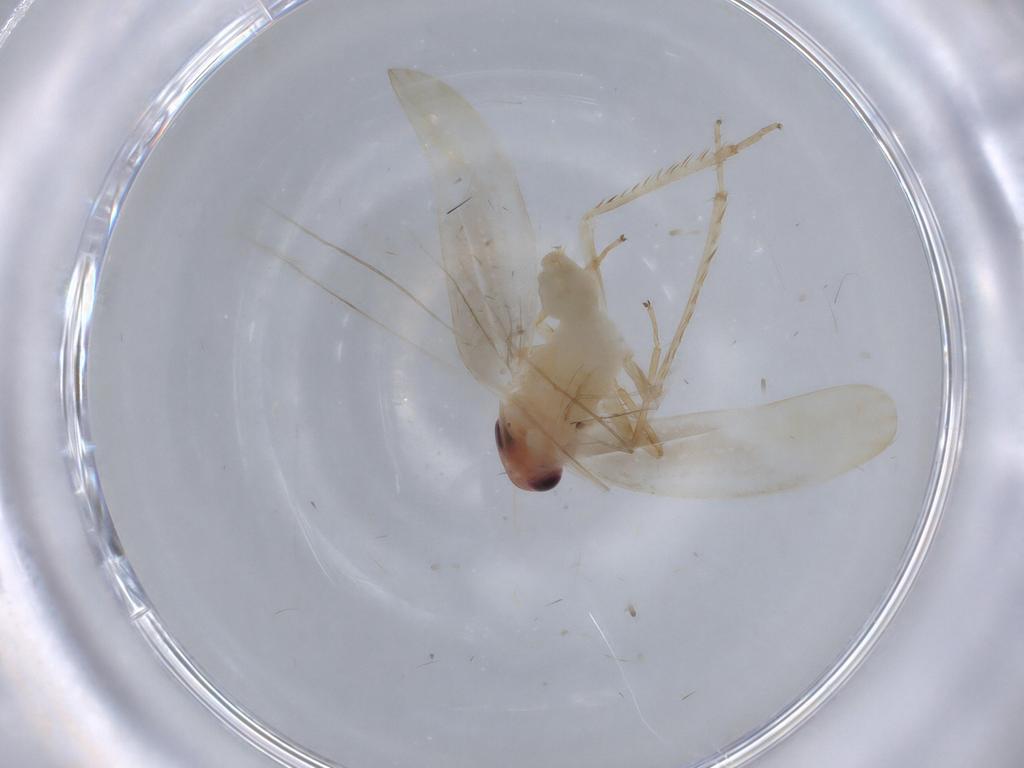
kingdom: Animalia
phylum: Arthropoda
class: Insecta
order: Hemiptera
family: Cicadellidae
